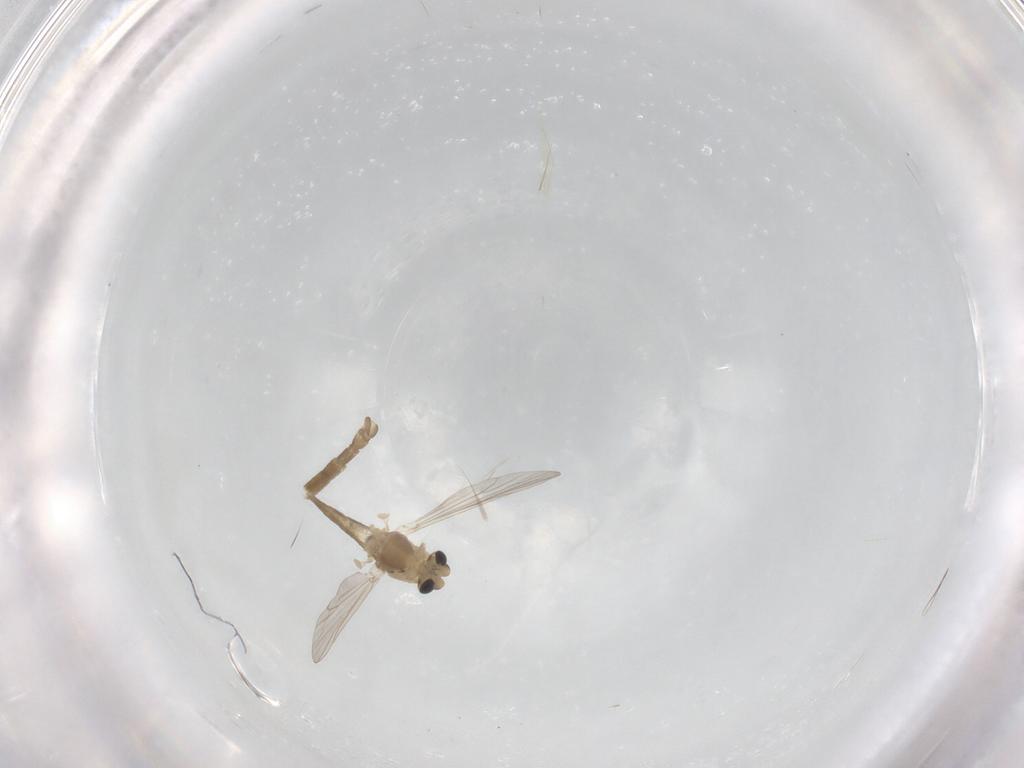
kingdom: Animalia
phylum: Arthropoda
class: Insecta
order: Diptera
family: Chironomidae
